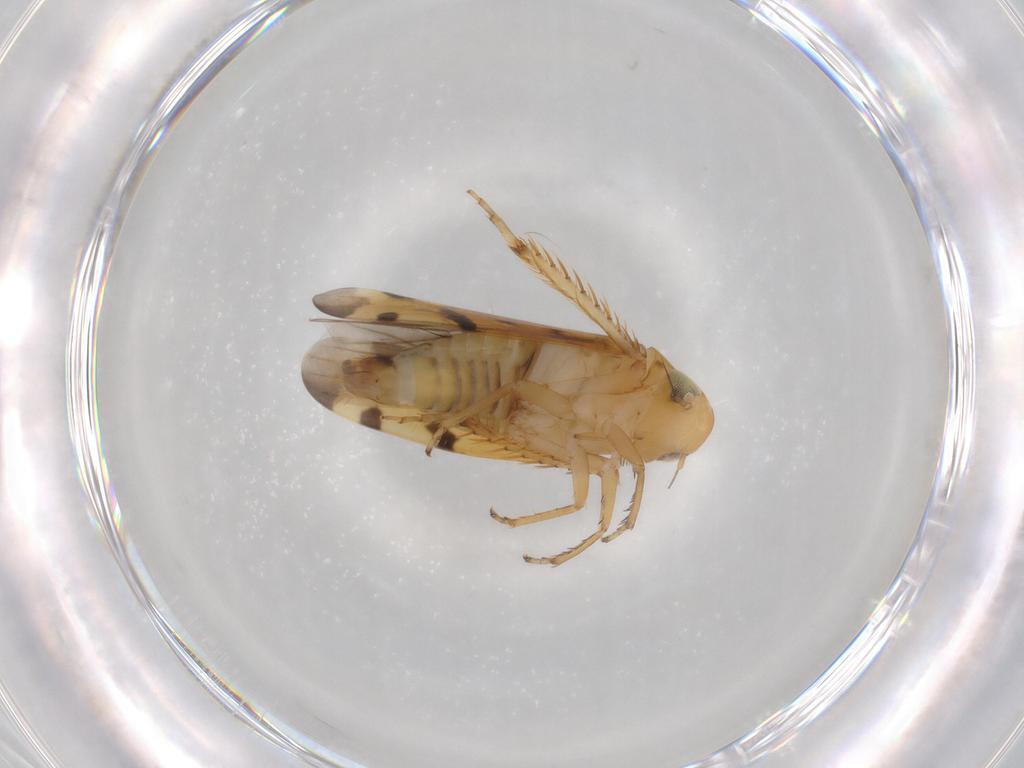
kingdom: Animalia
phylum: Arthropoda
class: Insecta
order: Hemiptera
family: Cicadellidae
